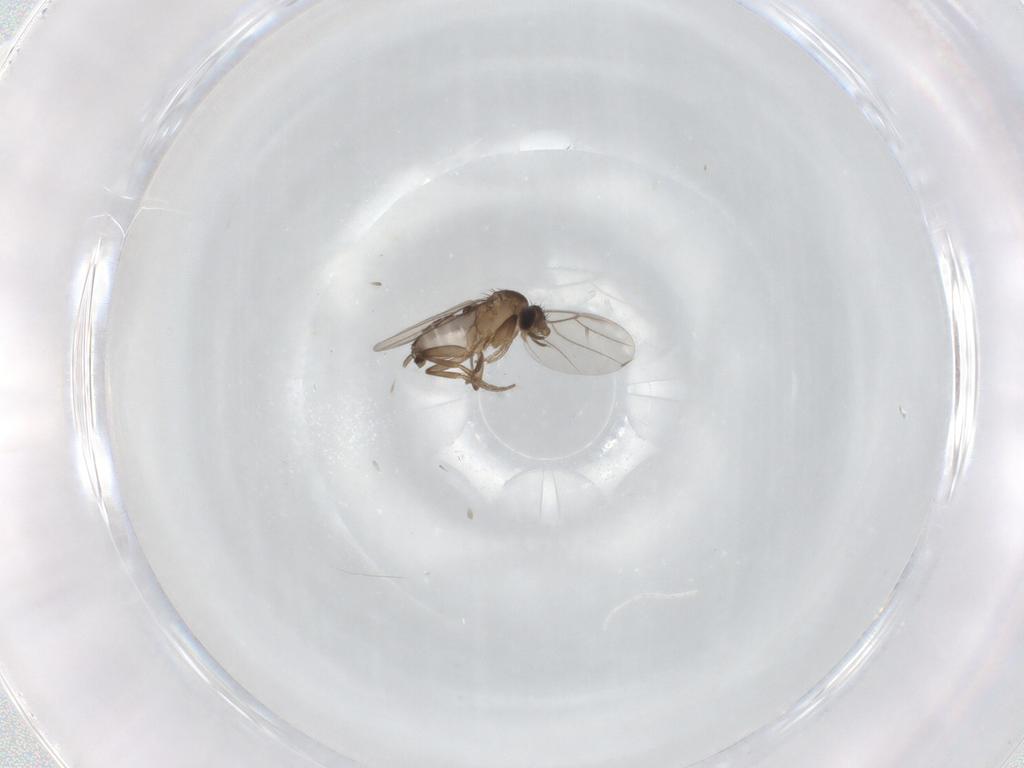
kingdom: Animalia
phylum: Arthropoda
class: Insecta
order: Diptera
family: Phoridae
